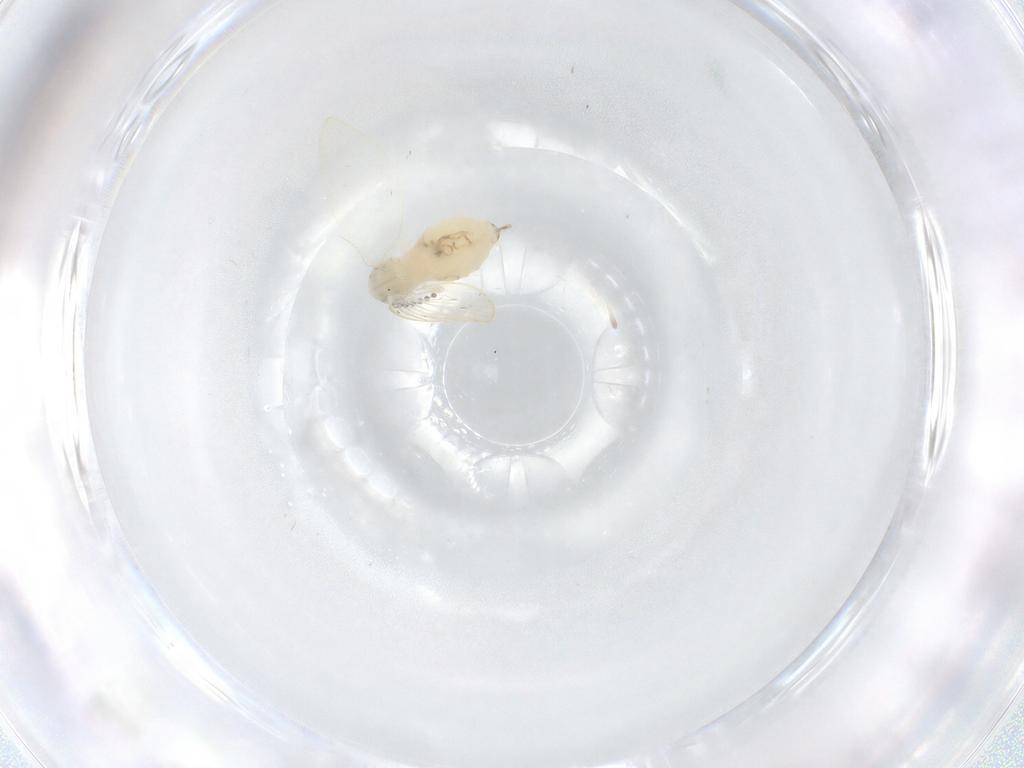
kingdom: Animalia
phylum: Arthropoda
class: Insecta
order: Diptera
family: Psychodidae
